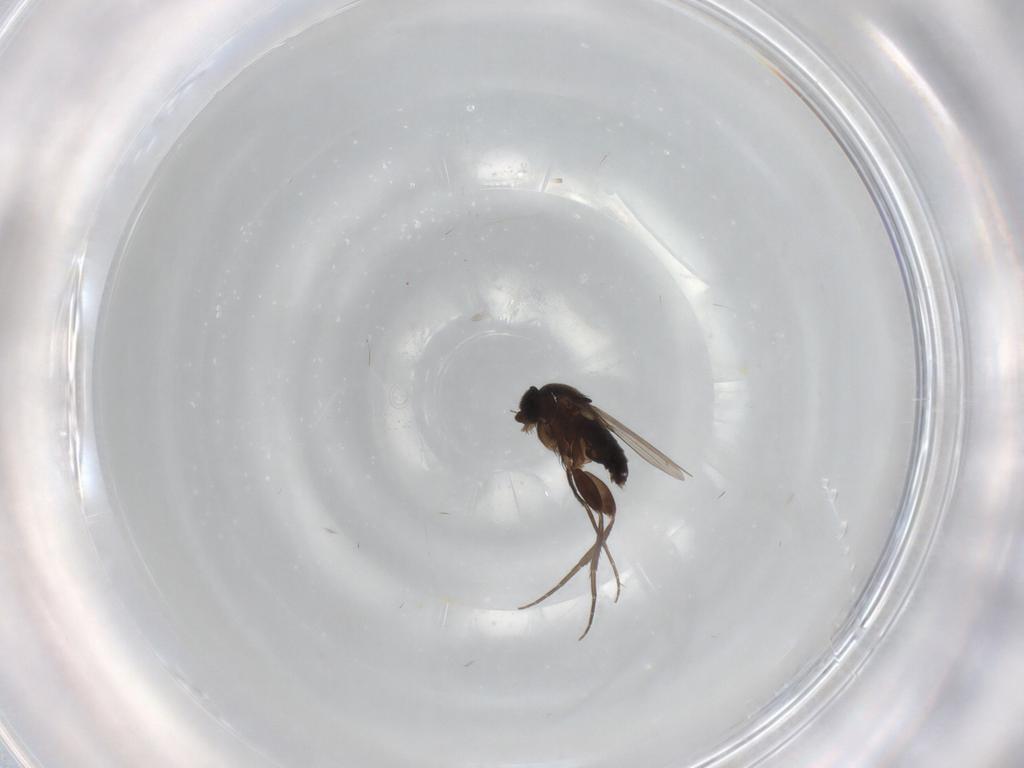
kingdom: Animalia
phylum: Arthropoda
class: Insecta
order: Diptera
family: Phoridae
